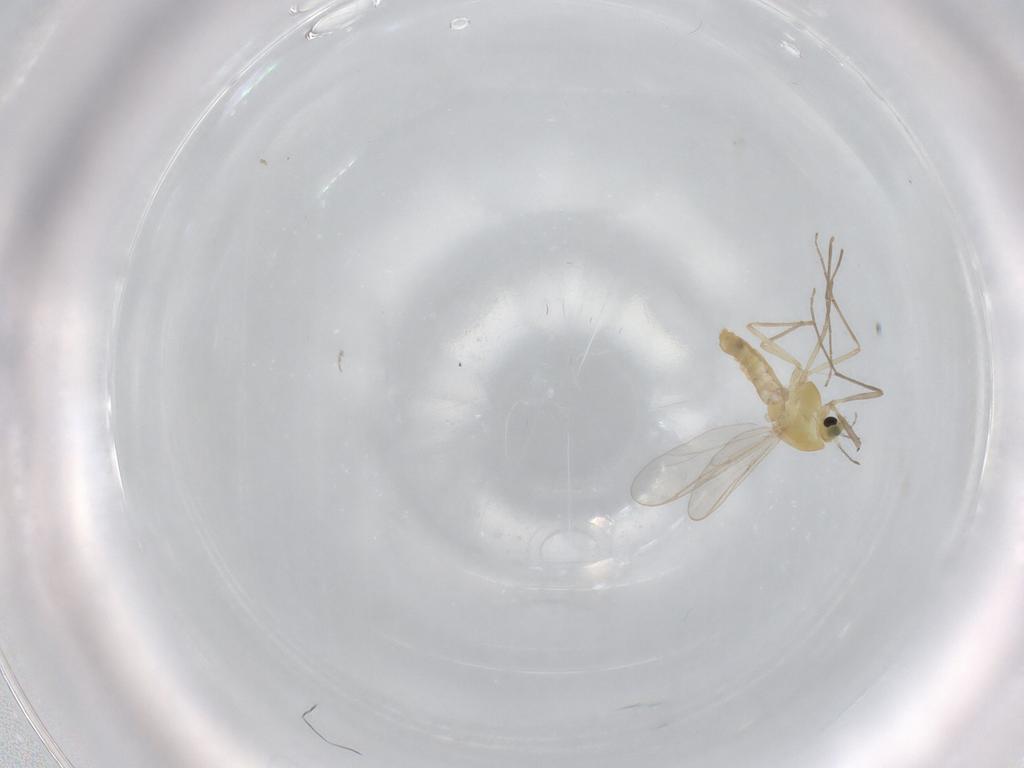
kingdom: Animalia
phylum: Arthropoda
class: Insecta
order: Diptera
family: Chironomidae
